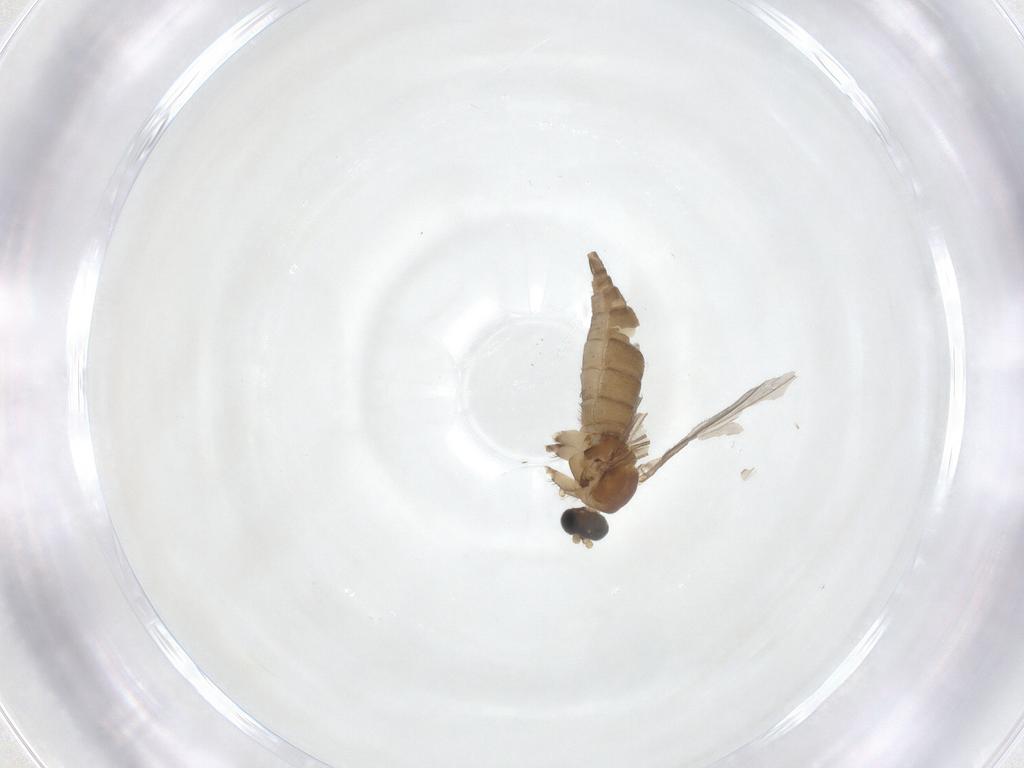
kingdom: Animalia
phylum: Arthropoda
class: Insecta
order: Diptera
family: Sciaridae
